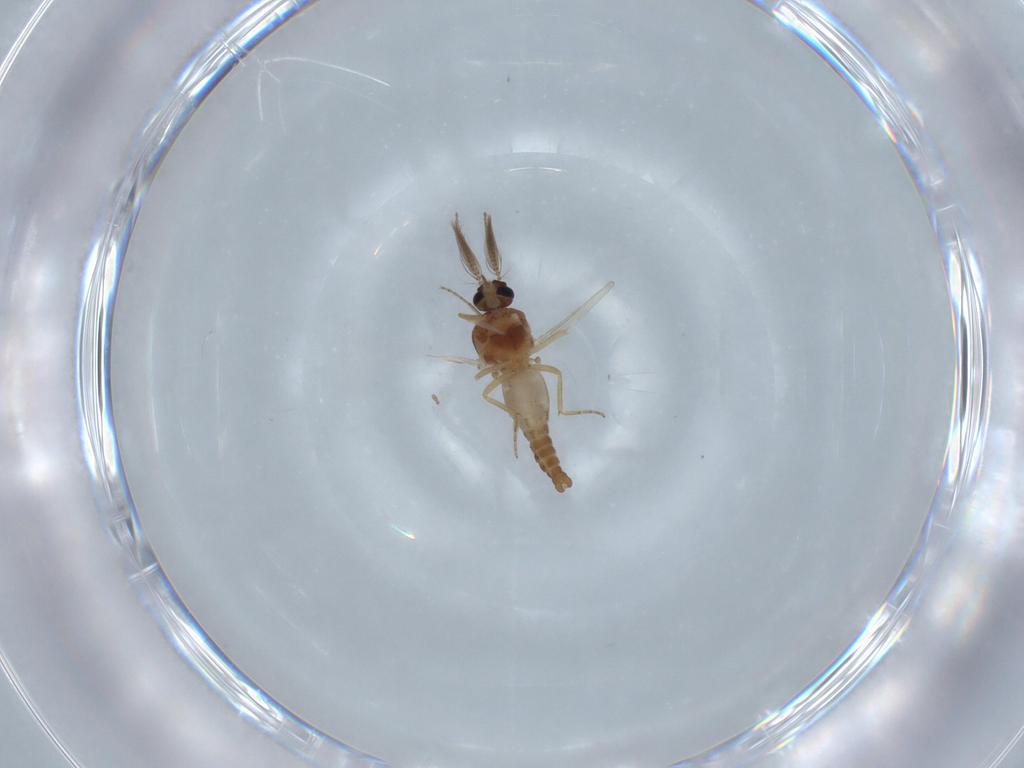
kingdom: Animalia
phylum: Arthropoda
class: Insecta
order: Diptera
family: Ceratopogonidae
